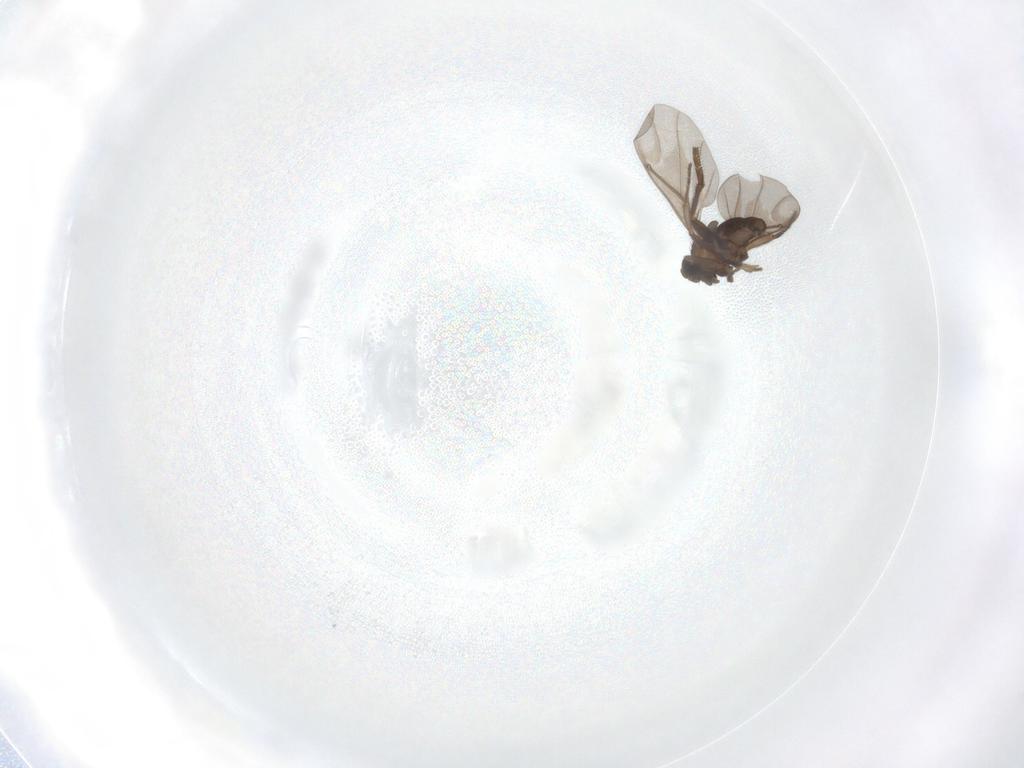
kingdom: Animalia
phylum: Arthropoda
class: Insecta
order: Diptera
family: Phoridae
